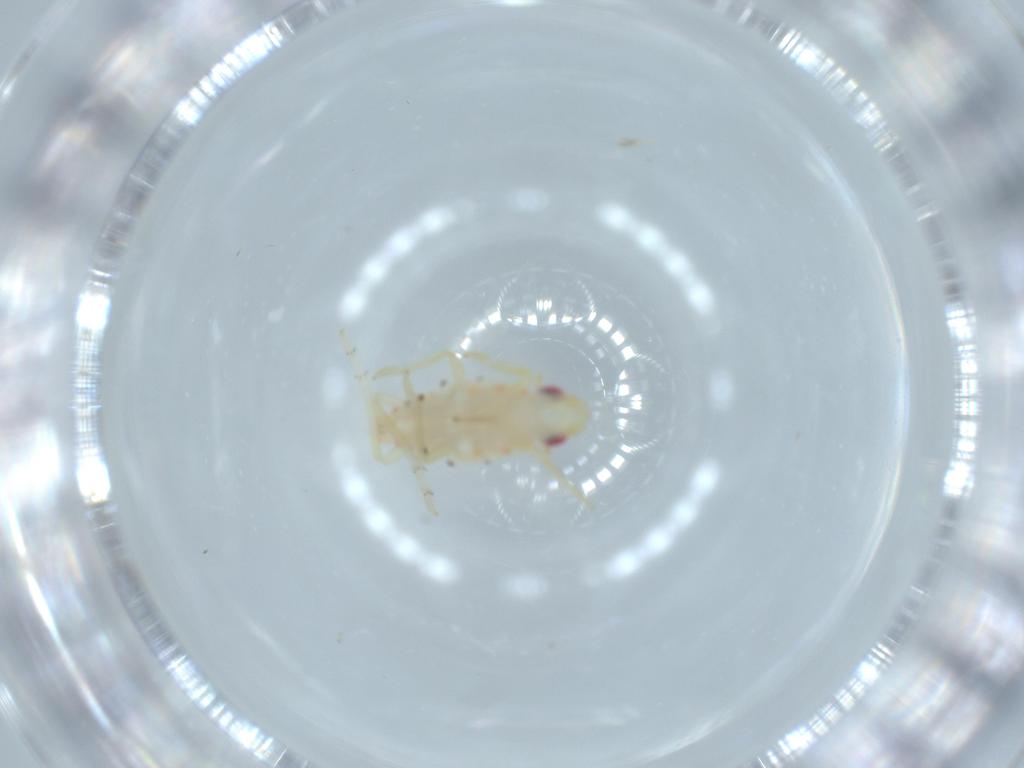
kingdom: Animalia
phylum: Arthropoda
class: Insecta
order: Hemiptera
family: Tropiduchidae
